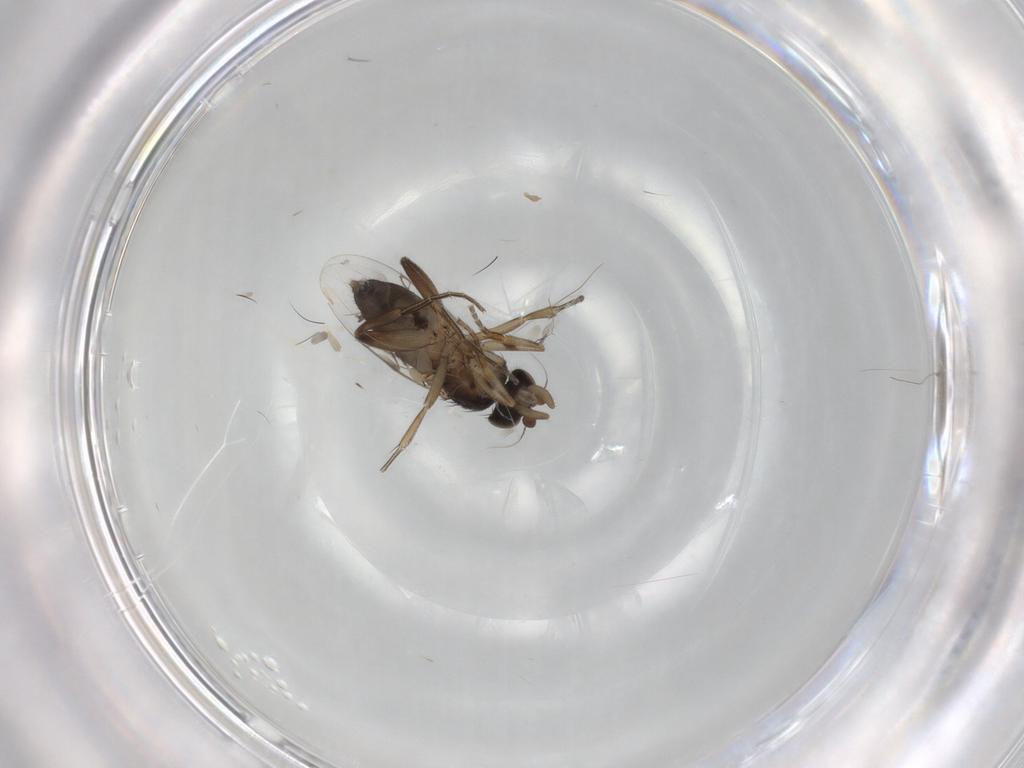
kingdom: Animalia
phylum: Arthropoda
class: Insecta
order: Diptera
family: Phoridae
